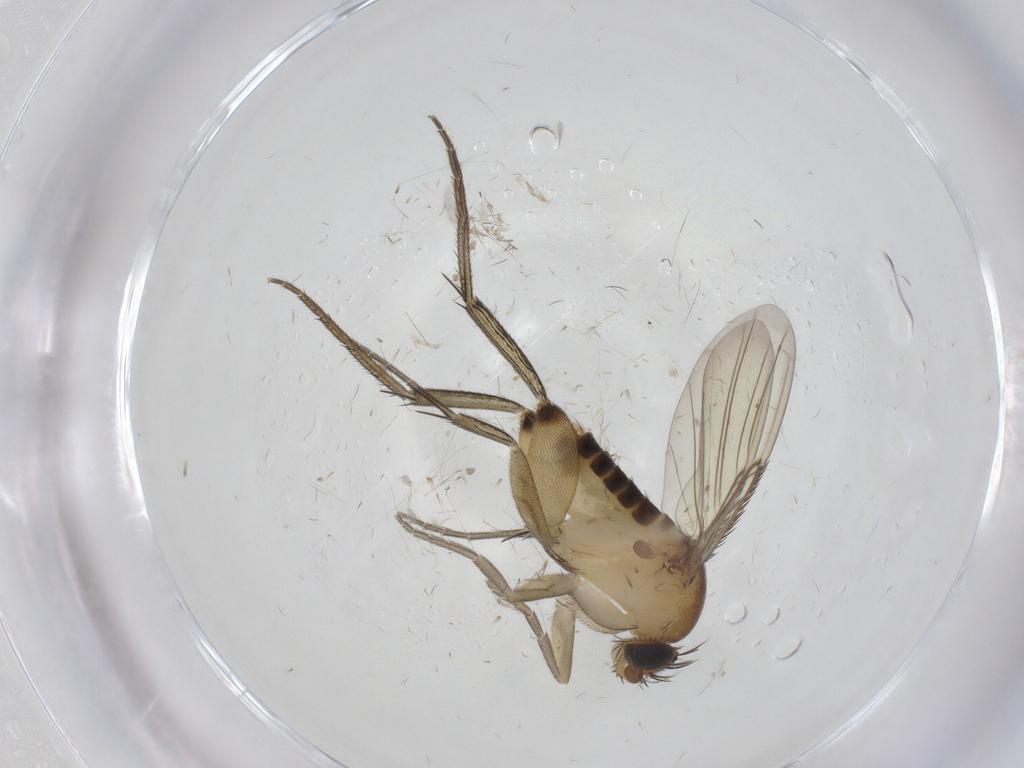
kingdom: Animalia
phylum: Arthropoda
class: Insecta
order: Diptera
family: Phoridae
